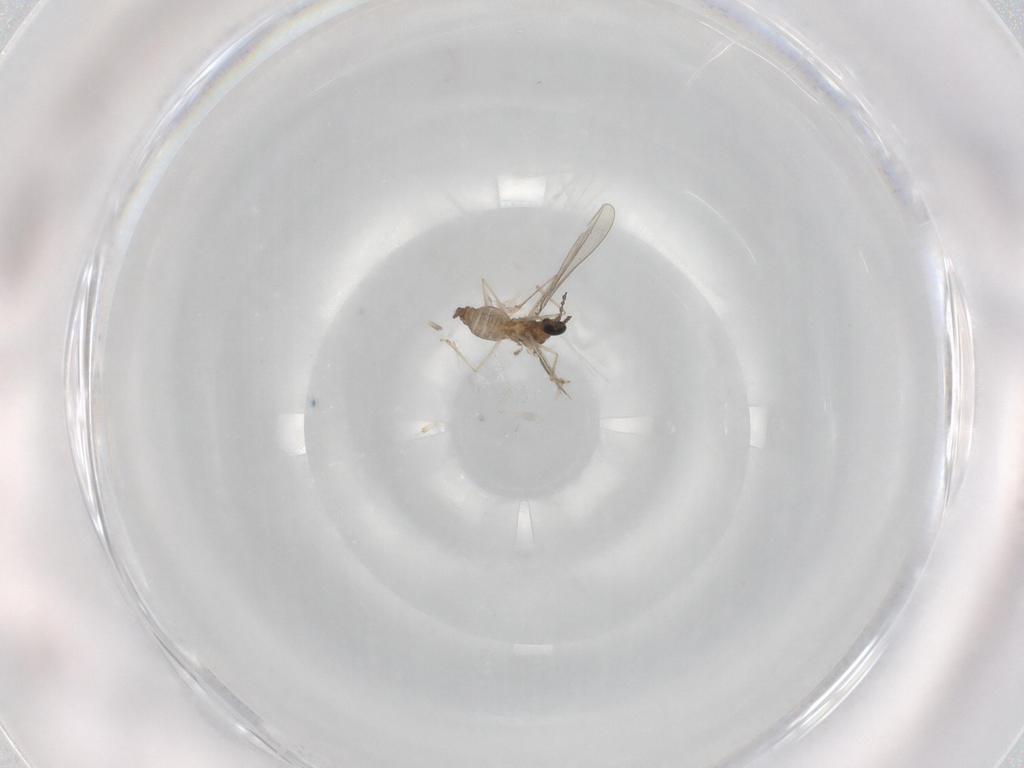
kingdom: Animalia
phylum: Arthropoda
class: Insecta
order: Diptera
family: Cecidomyiidae
